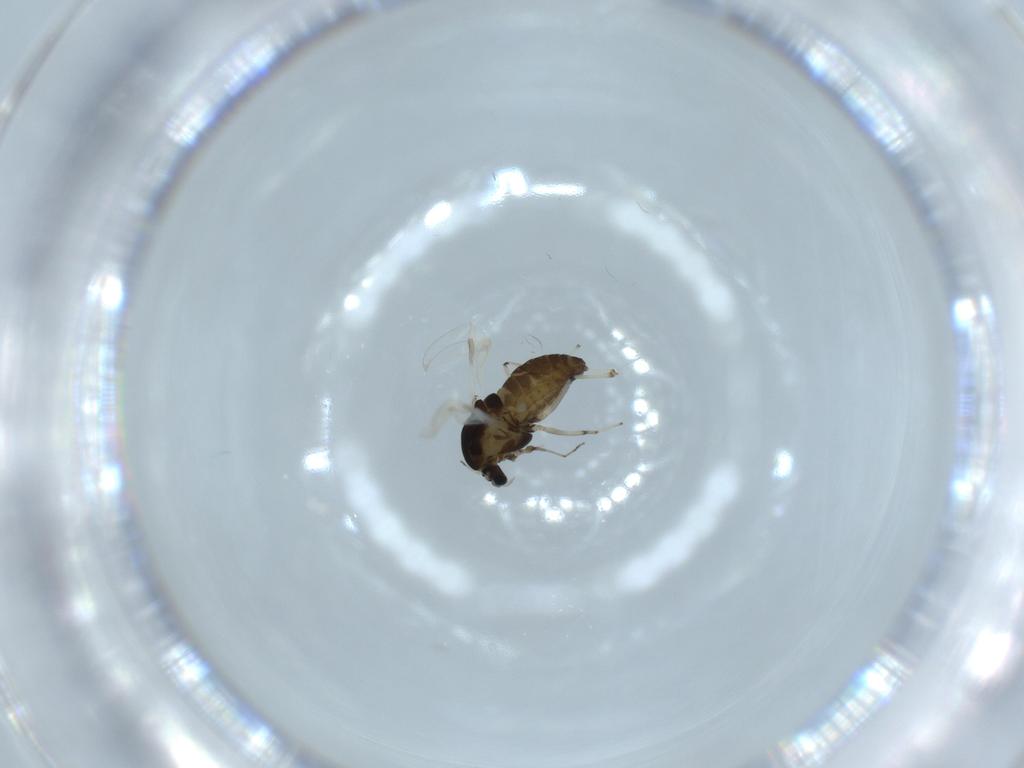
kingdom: Animalia
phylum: Arthropoda
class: Insecta
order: Diptera
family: Chironomidae
